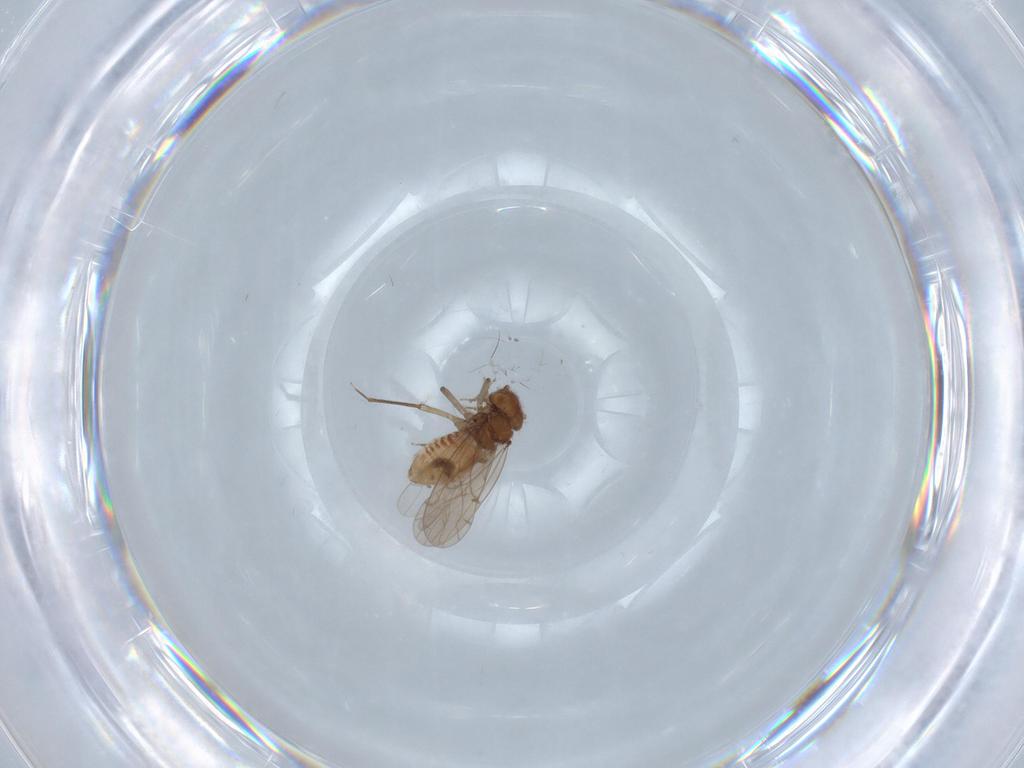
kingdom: Animalia
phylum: Arthropoda
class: Insecta
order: Psocodea
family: Ectopsocidae
